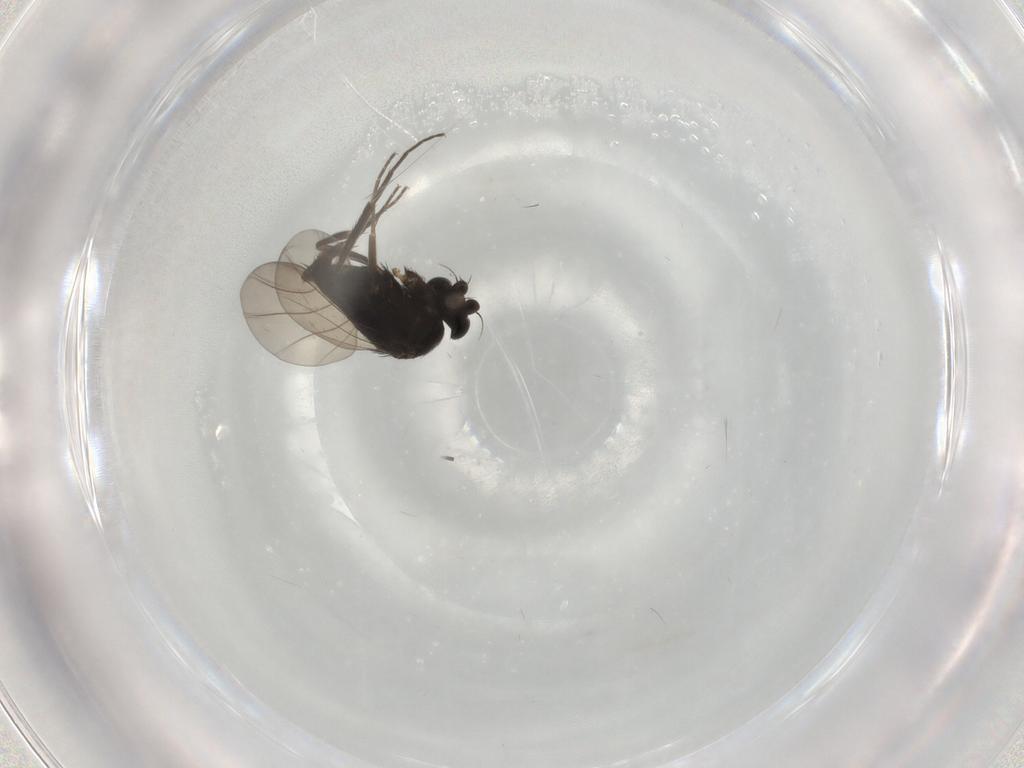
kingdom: Animalia
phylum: Arthropoda
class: Insecta
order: Diptera
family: Phoridae
